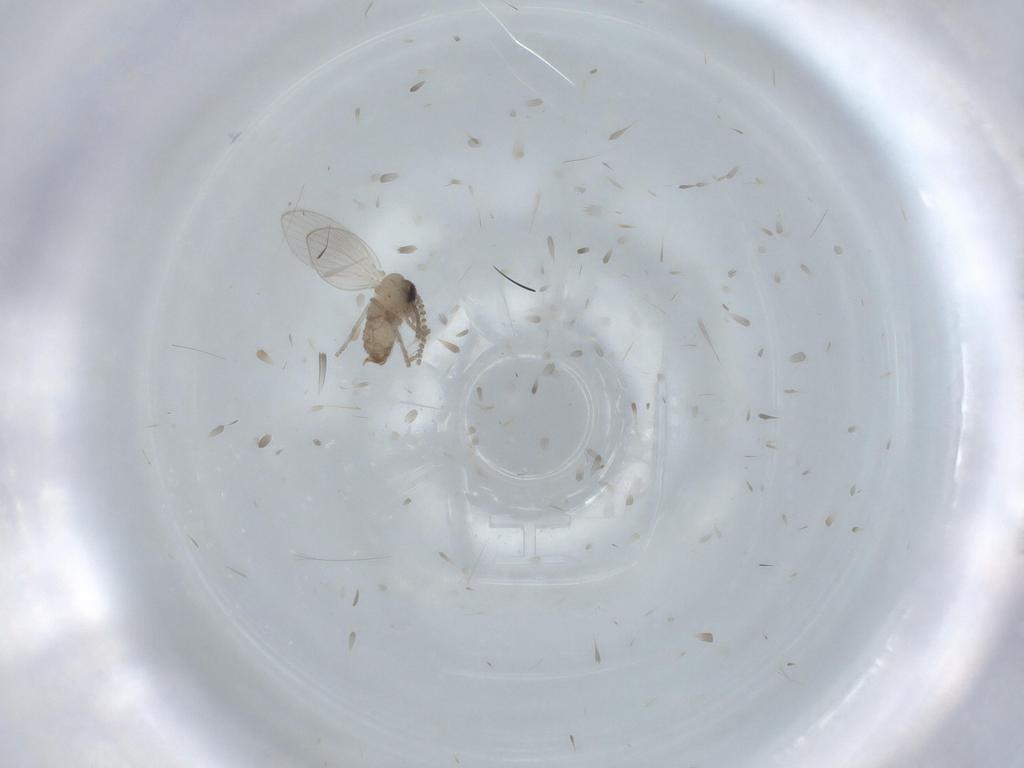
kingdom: Animalia
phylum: Arthropoda
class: Insecta
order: Diptera
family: Psychodidae
